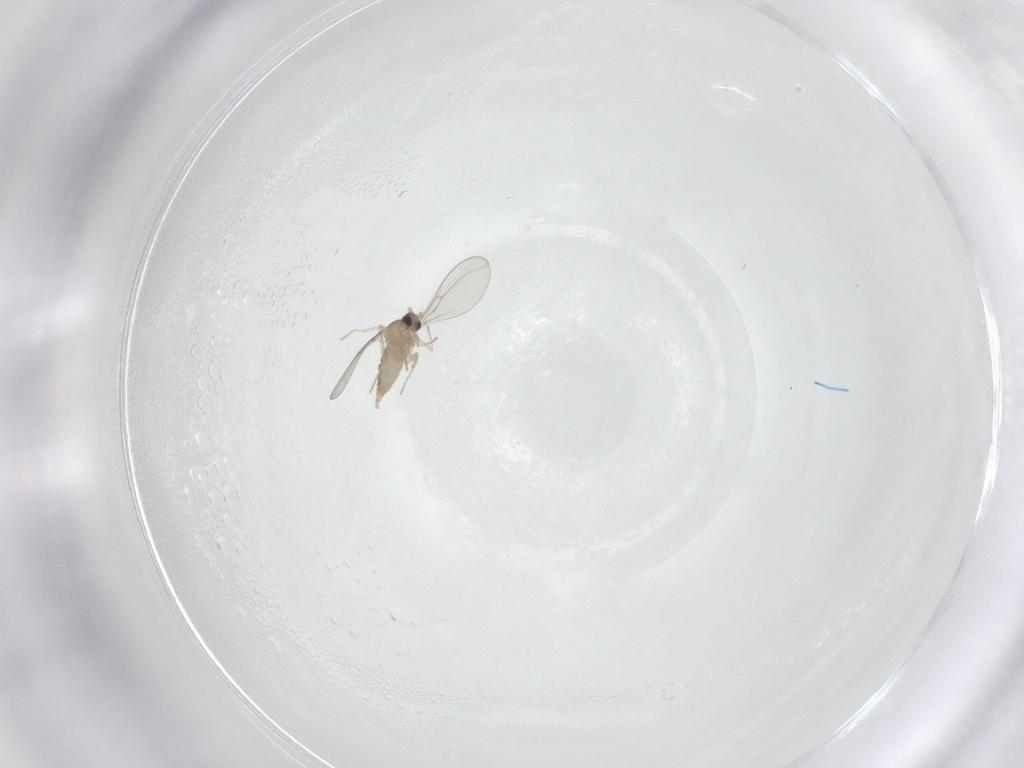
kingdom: Animalia
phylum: Arthropoda
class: Insecta
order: Diptera
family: Cecidomyiidae
